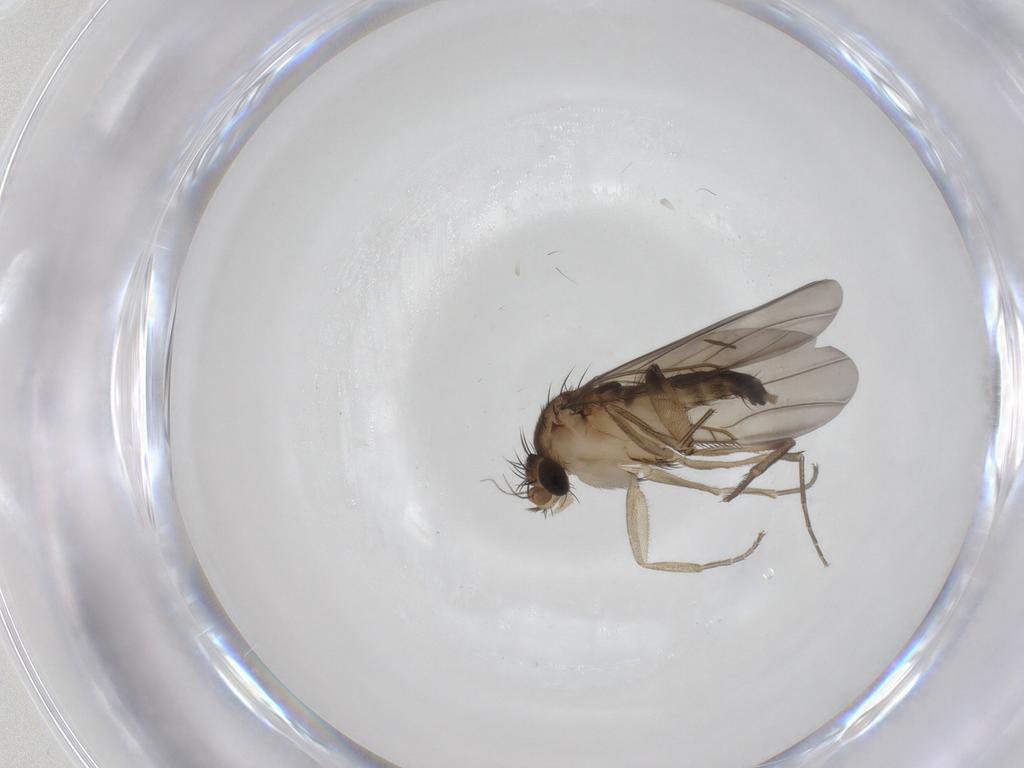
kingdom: Animalia
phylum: Arthropoda
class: Insecta
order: Diptera
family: Phoridae
